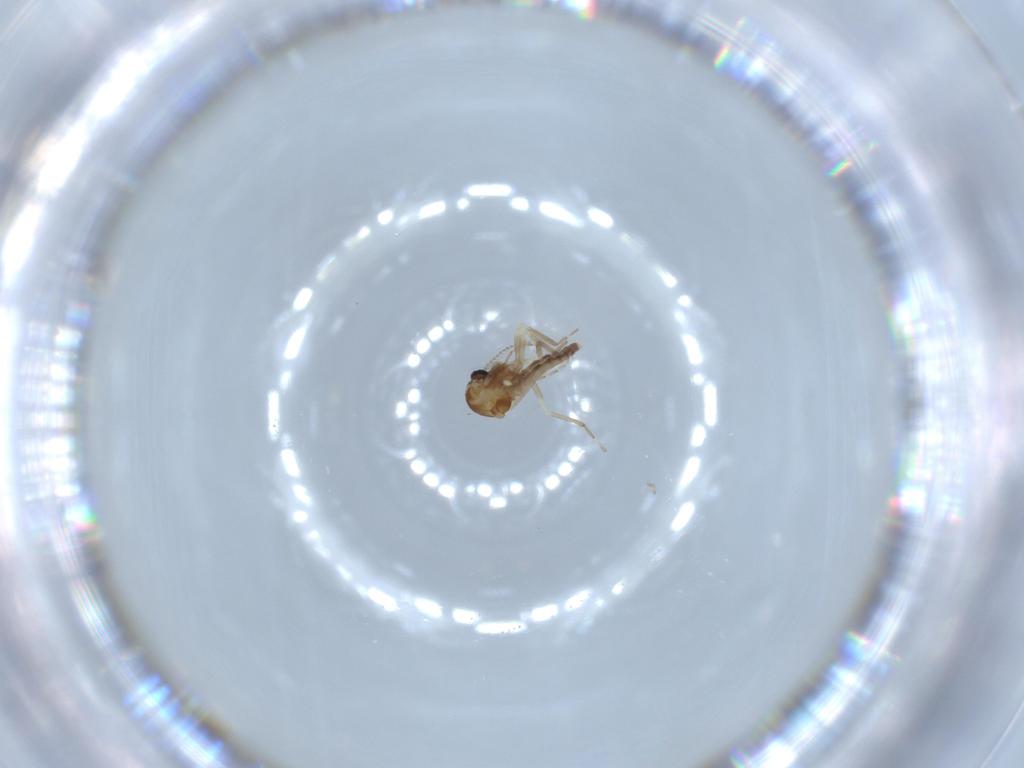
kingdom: Animalia
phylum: Arthropoda
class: Insecta
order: Diptera
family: Ceratopogonidae
